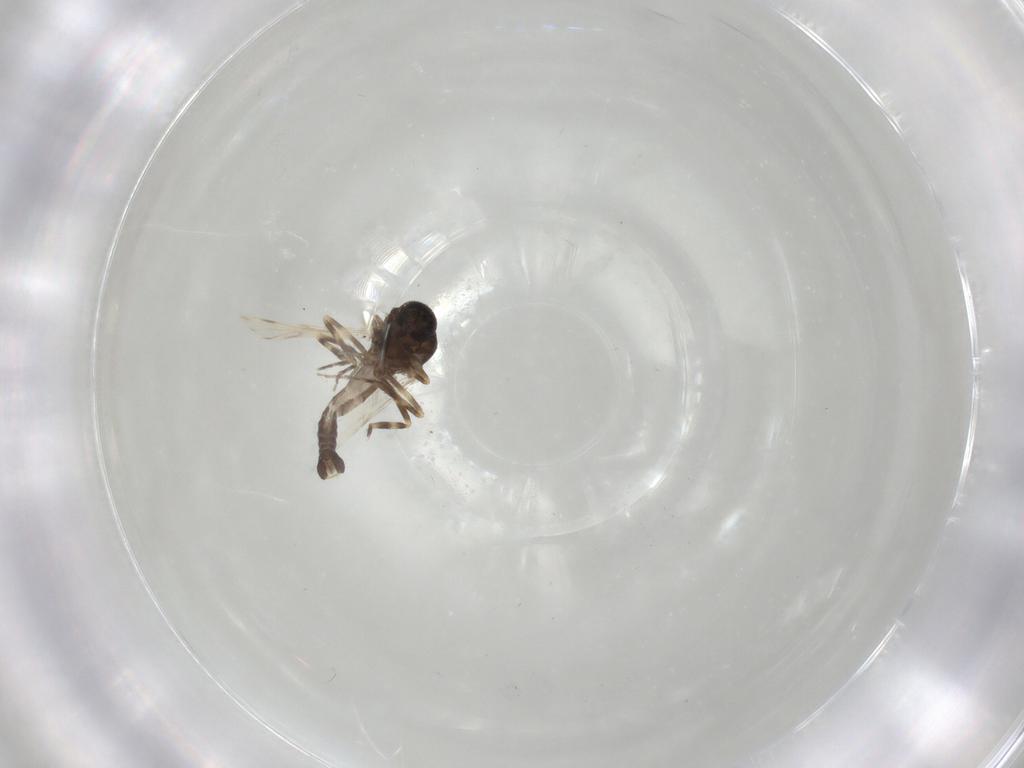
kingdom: Animalia
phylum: Arthropoda
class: Insecta
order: Diptera
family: Ceratopogonidae
